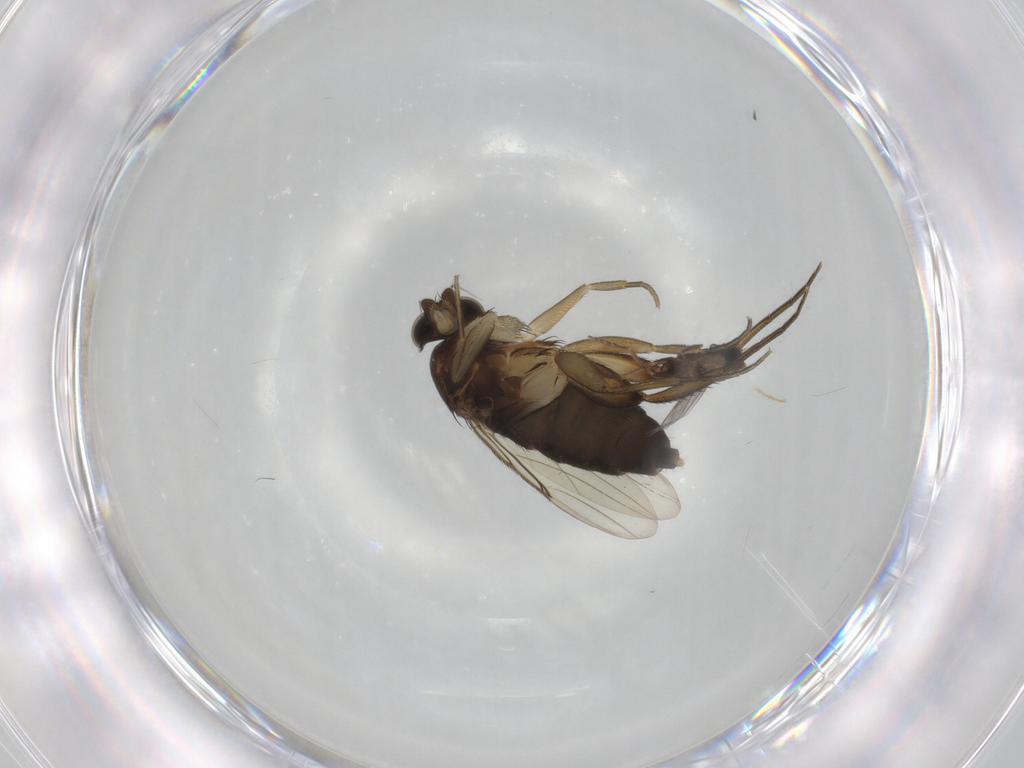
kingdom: Animalia
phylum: Arthropoda
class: Insecta
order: Diptera
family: Phoridae
